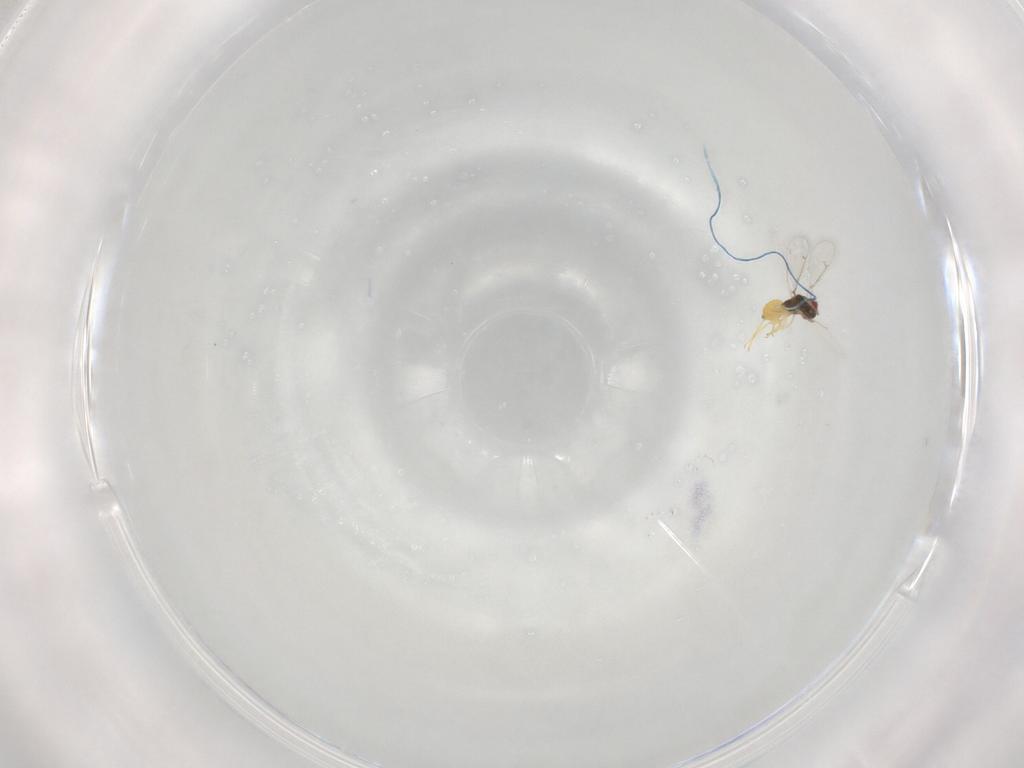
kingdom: Animalia
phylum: Arthropoda
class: Insecta
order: Hymenoptera
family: Eulophidae
